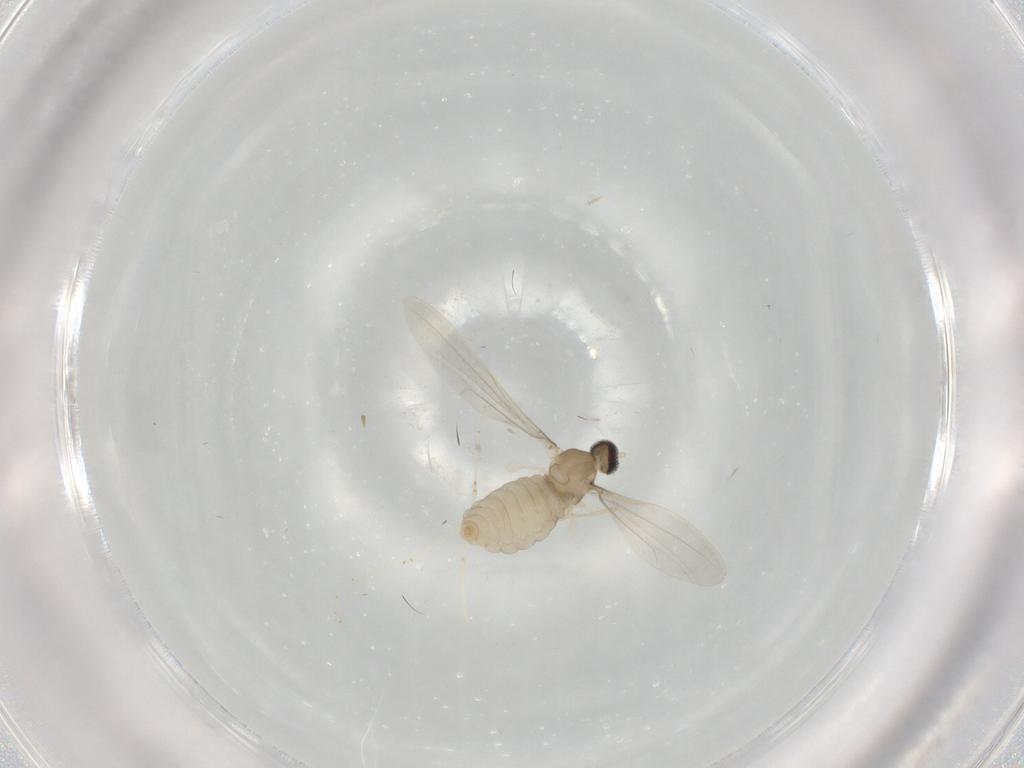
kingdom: Animalia
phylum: Arthropoda
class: Insecta
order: Diptera
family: Cecidomyiidae
